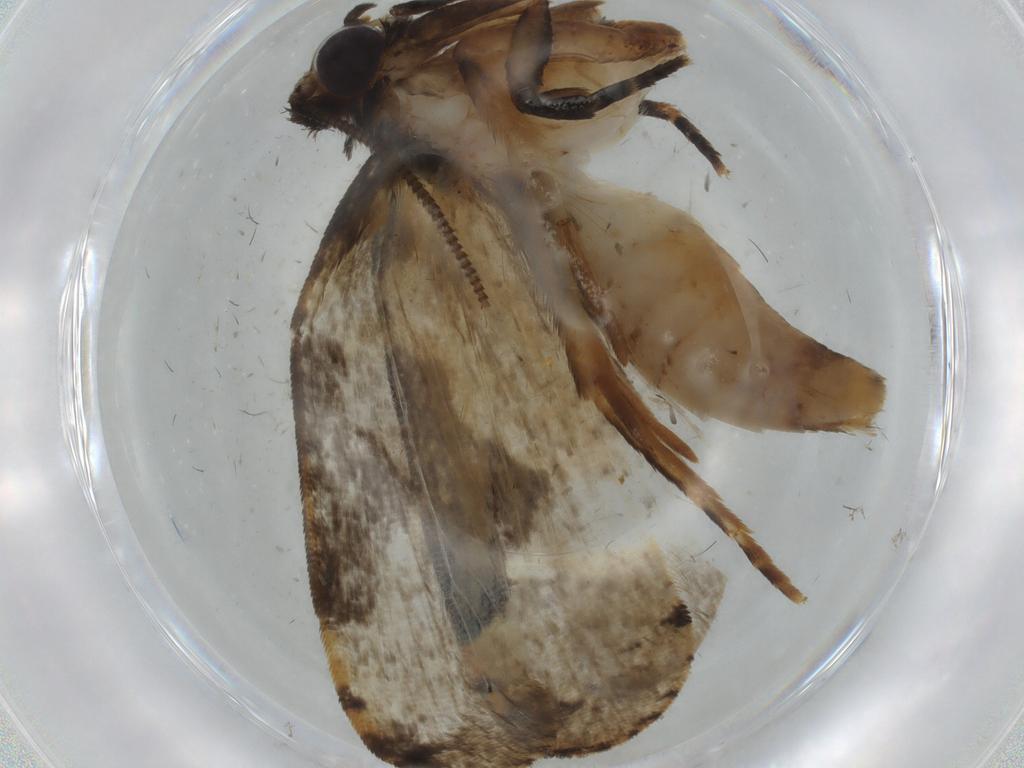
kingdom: Animalia
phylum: Arthropoda
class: Insecta
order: Lepidoptera
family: Tineidae
